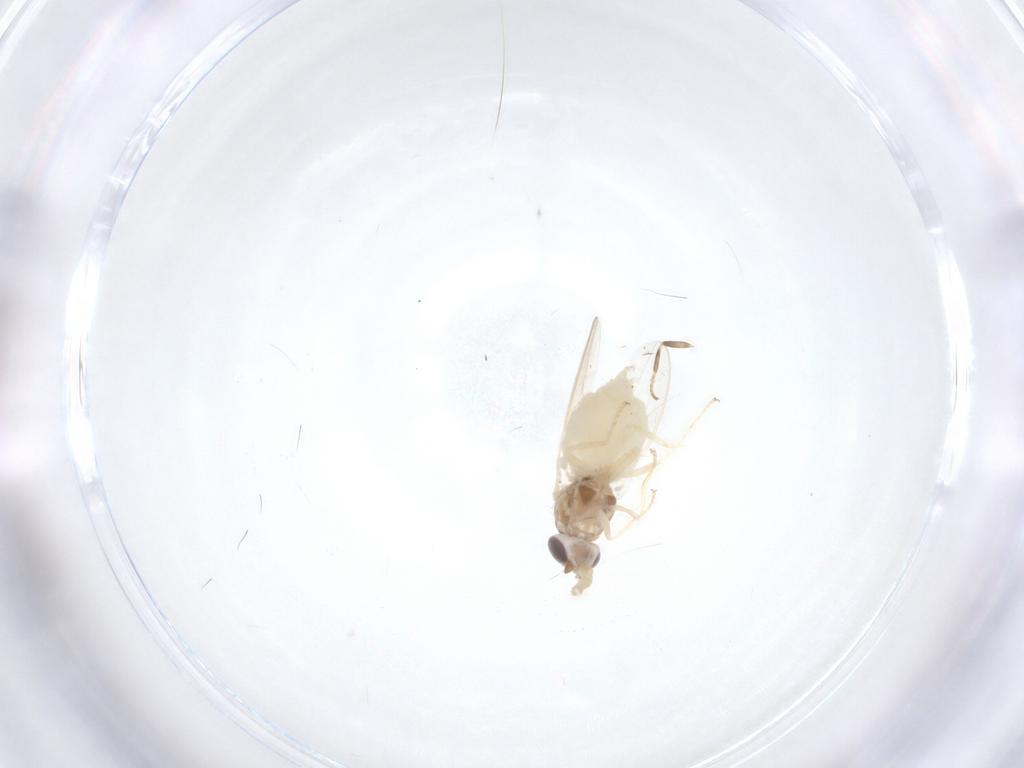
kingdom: Animalia
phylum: Arthropoda
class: Insecta
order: Diptera
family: Chloropidae
